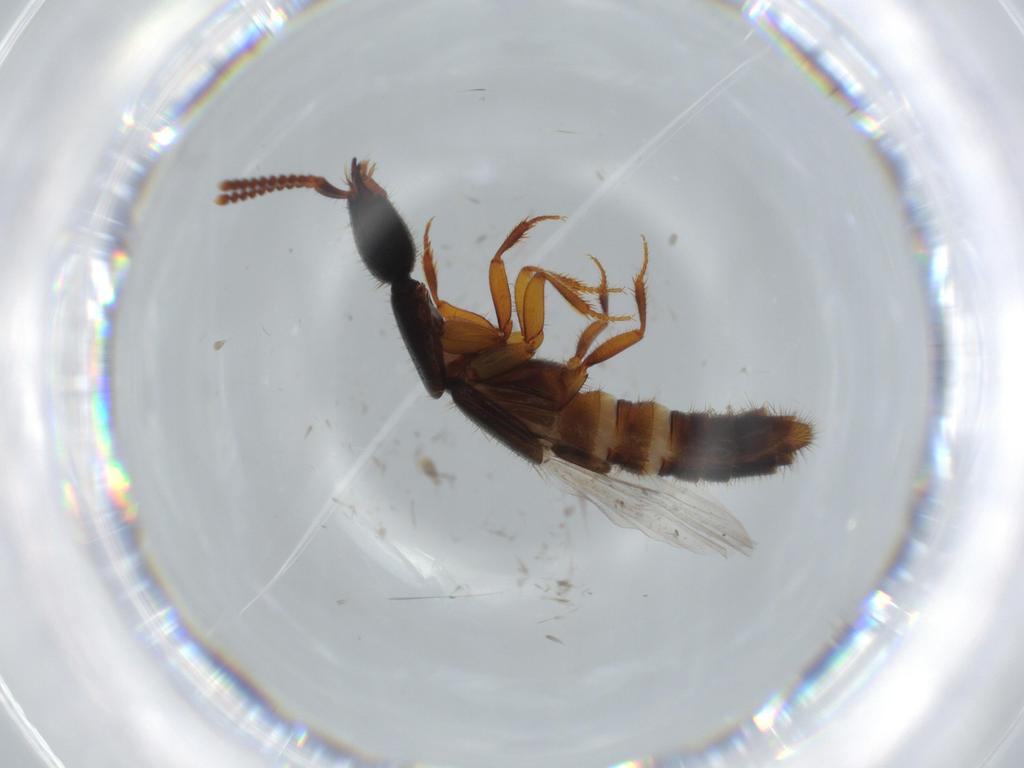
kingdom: Animalia
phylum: Arthropoda
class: Insecta
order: Coleoptera
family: Staphylinidae
